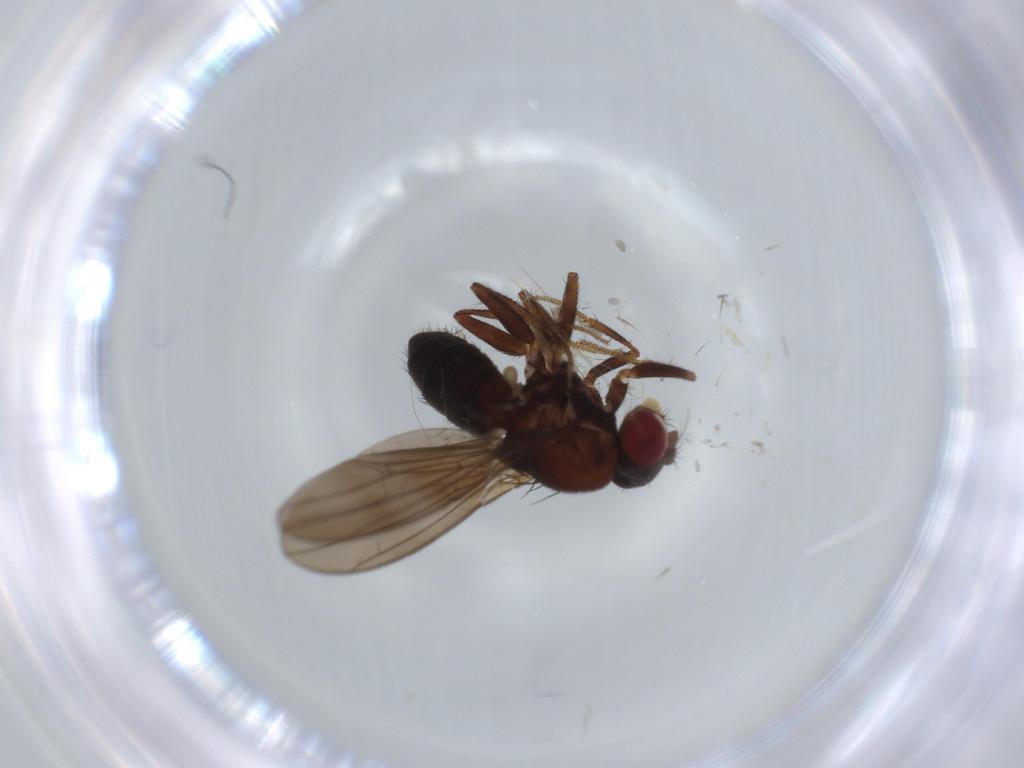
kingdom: Animalia
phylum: Arthropoda
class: Insecta
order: Diptera
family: Drosophilidae
